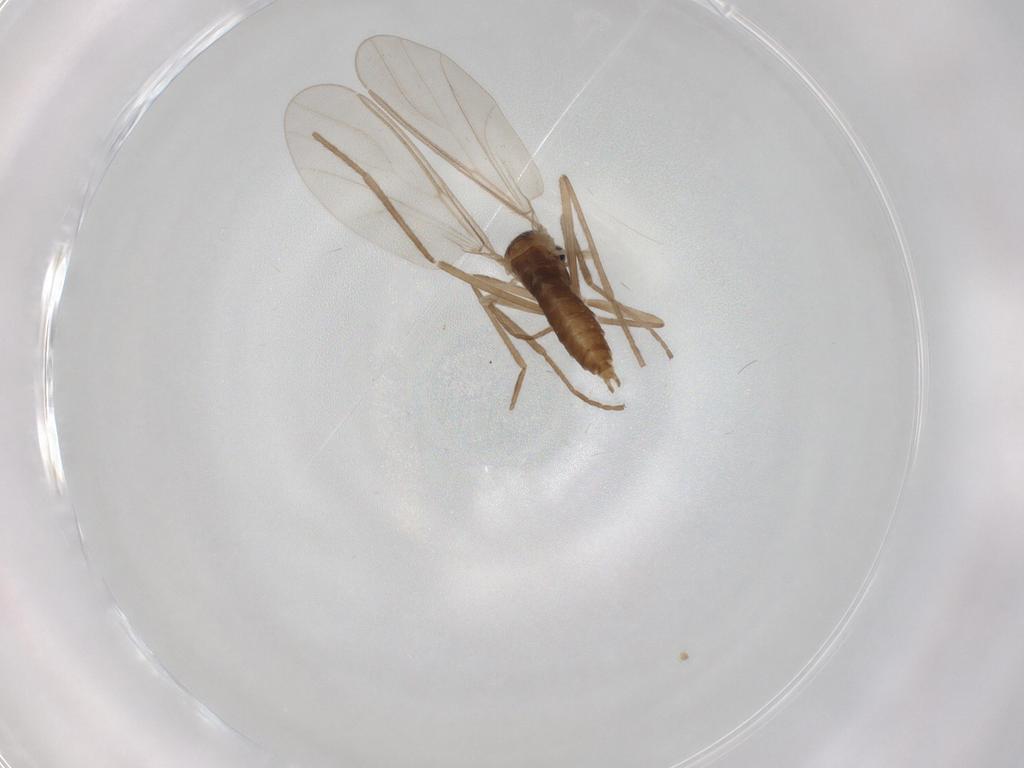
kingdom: Animalia
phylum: Arthropoda
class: Insecta
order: Diptera
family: Cecidomyiidae
